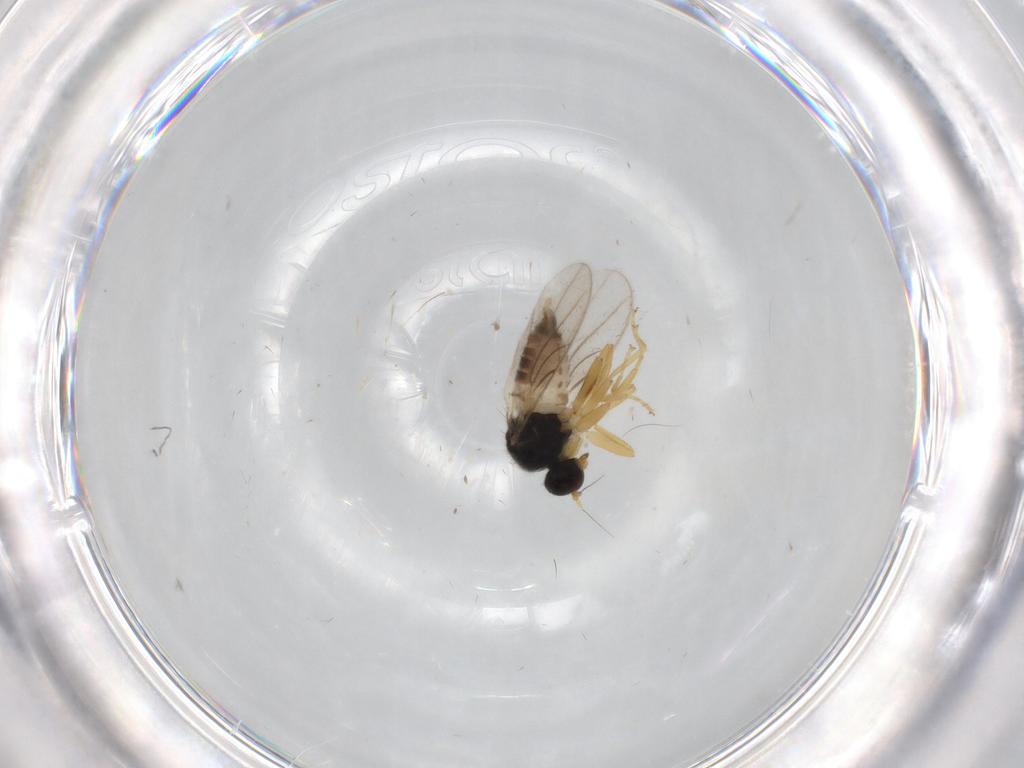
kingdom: Animalia
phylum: Arthropoda
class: Insecta
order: Diptera
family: Hybotidae
